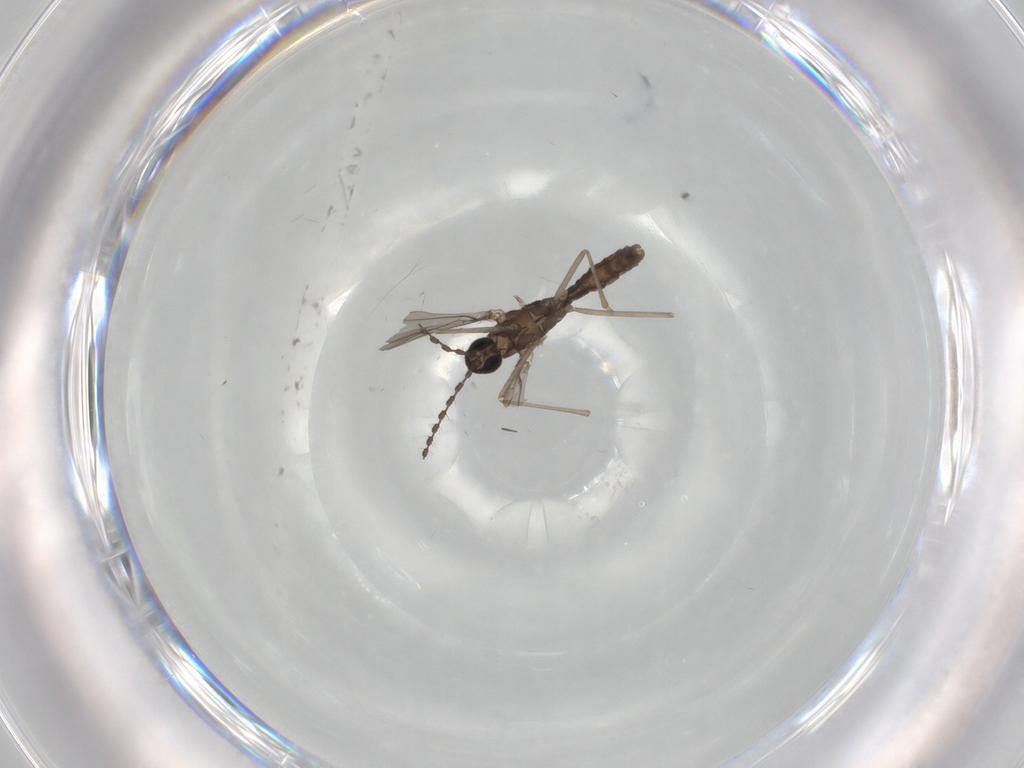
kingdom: Animalia
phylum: Arthropoda
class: Insecta
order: Diptera
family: Cecidomyiidae
